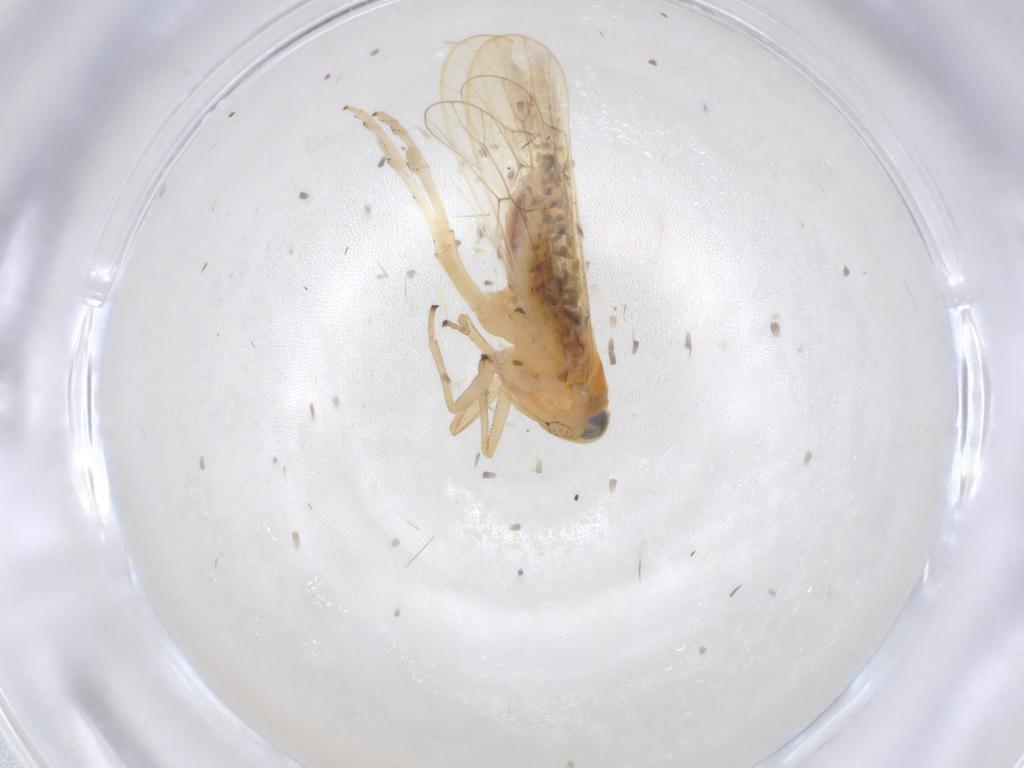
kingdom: Animalia
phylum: Arthropoda
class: Insecta
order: Hemiptera
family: Delphacidae
